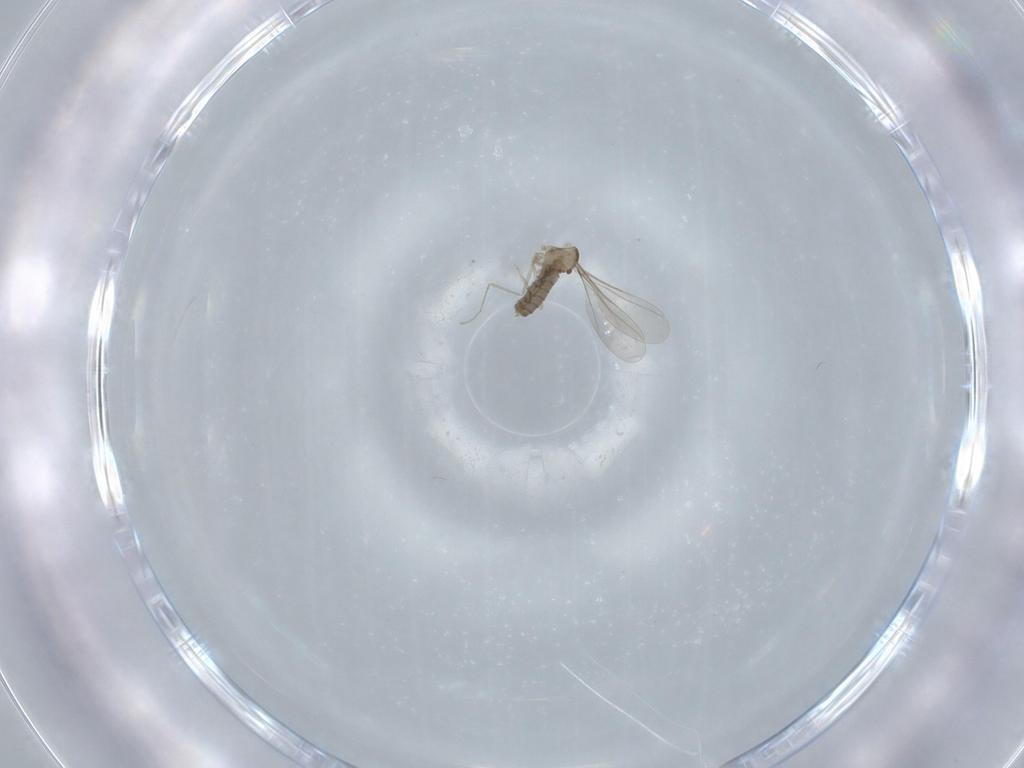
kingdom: Animalia
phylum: Arthropoda
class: Insecta
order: Diptera
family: Cecidomyiidae
